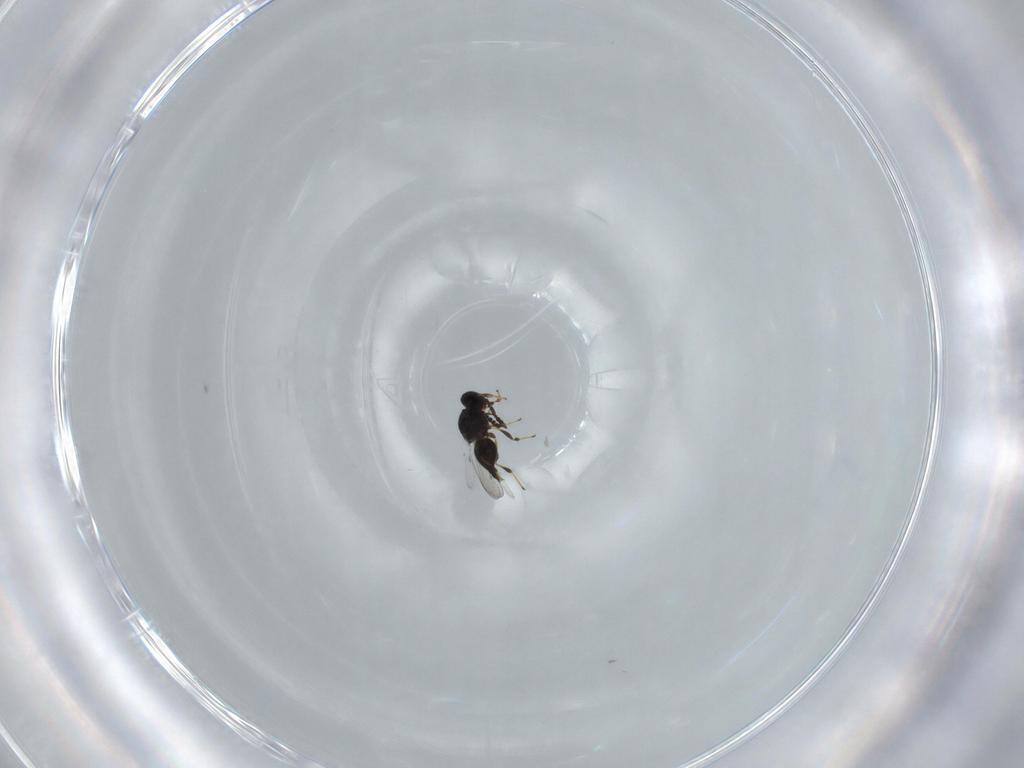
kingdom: Animalia
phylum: Arthropoda
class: Insecta
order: Hymenoptera
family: Platygastridae
